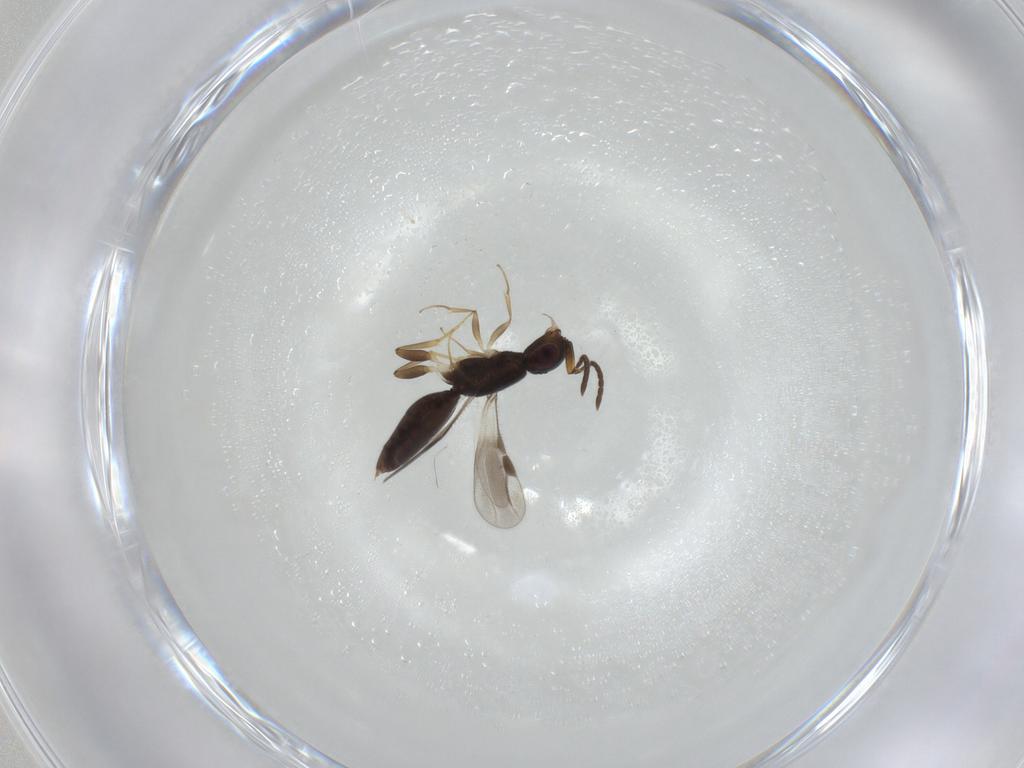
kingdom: Animalia
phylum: Arthropoda
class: Insecta
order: Hymenoptera
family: Megaspilidae
